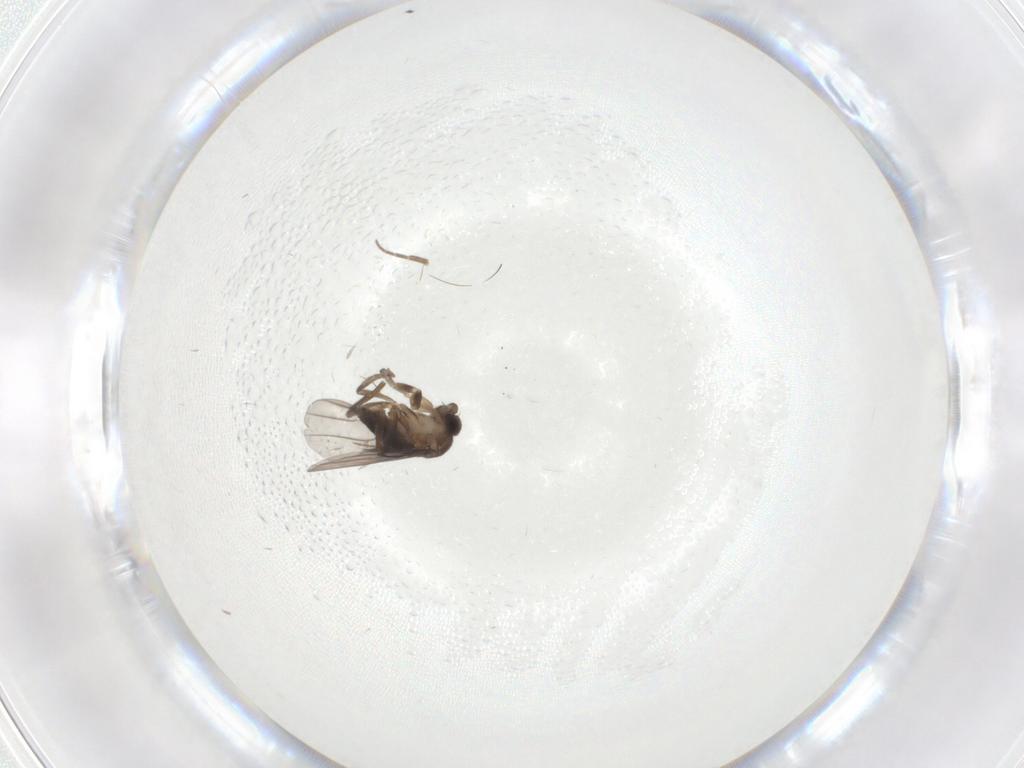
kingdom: Animalia
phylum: Arthropoda
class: Insecta
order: Diptera
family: Ceratopogonidae
